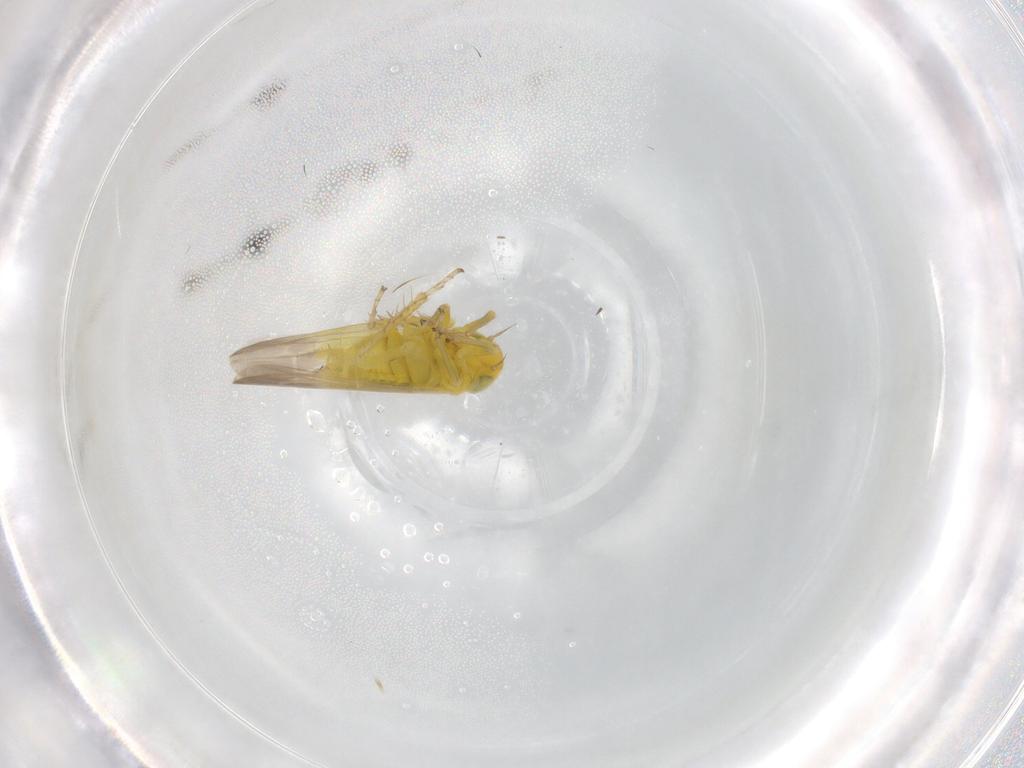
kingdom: Animalia
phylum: Arthropoda
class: Insecta
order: Hemiptera
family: Cicadellidae
